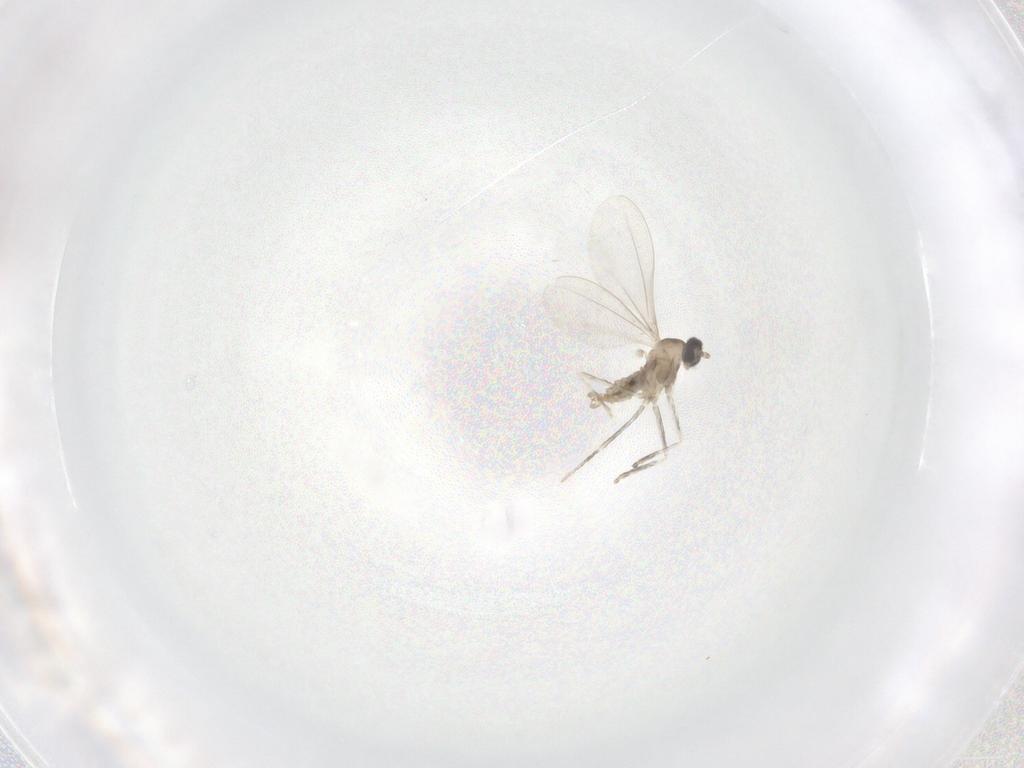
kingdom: Animalia
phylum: Arthropoda
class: Insecta
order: Diptera
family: Cecidomyiidae
